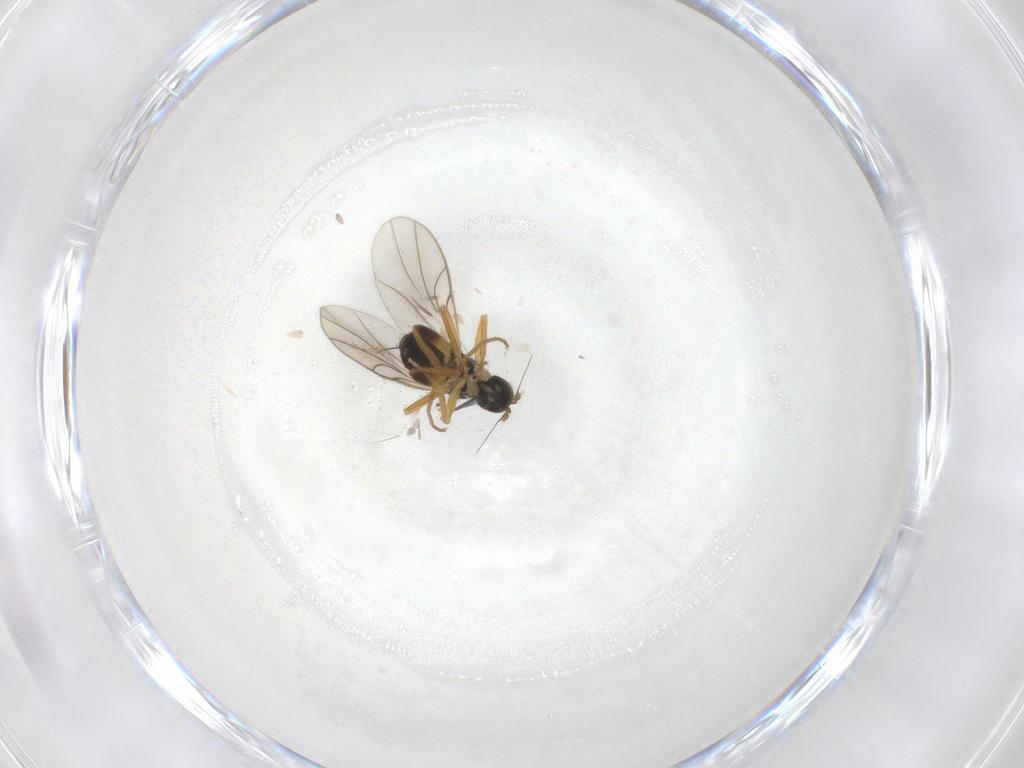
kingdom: Animalia
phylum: Arthropoda
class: Insecta
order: Diptera
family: Hybotidae
